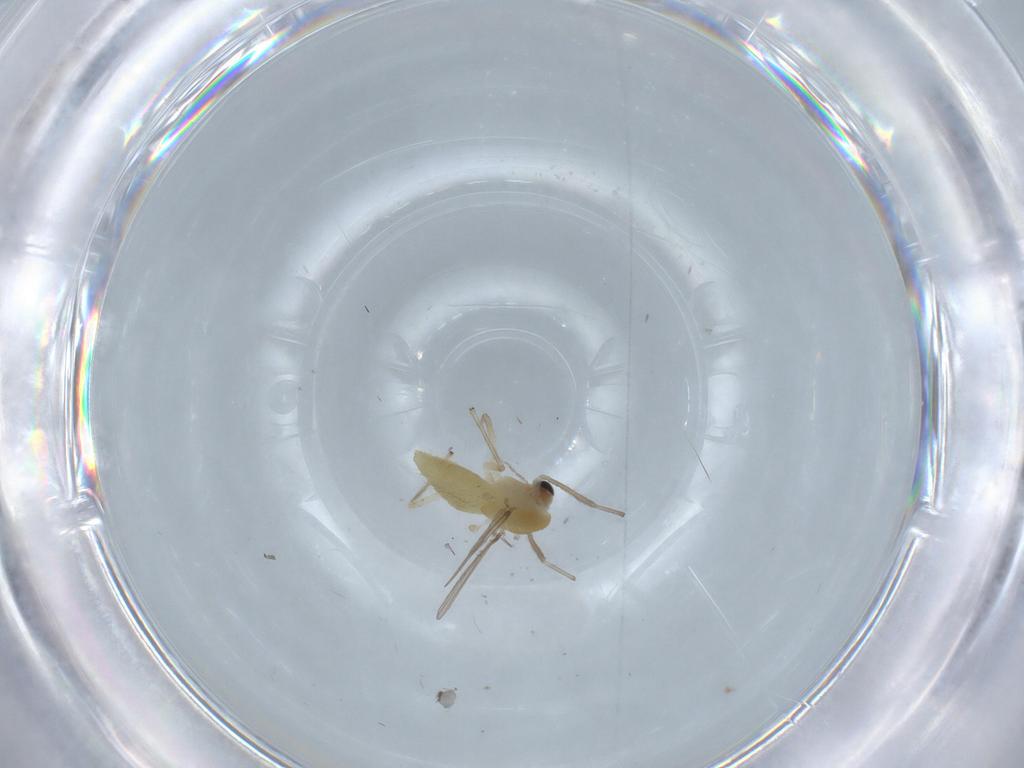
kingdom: Animalia
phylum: Arthropoda
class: Insecta
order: Diptera
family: Chironomidae
